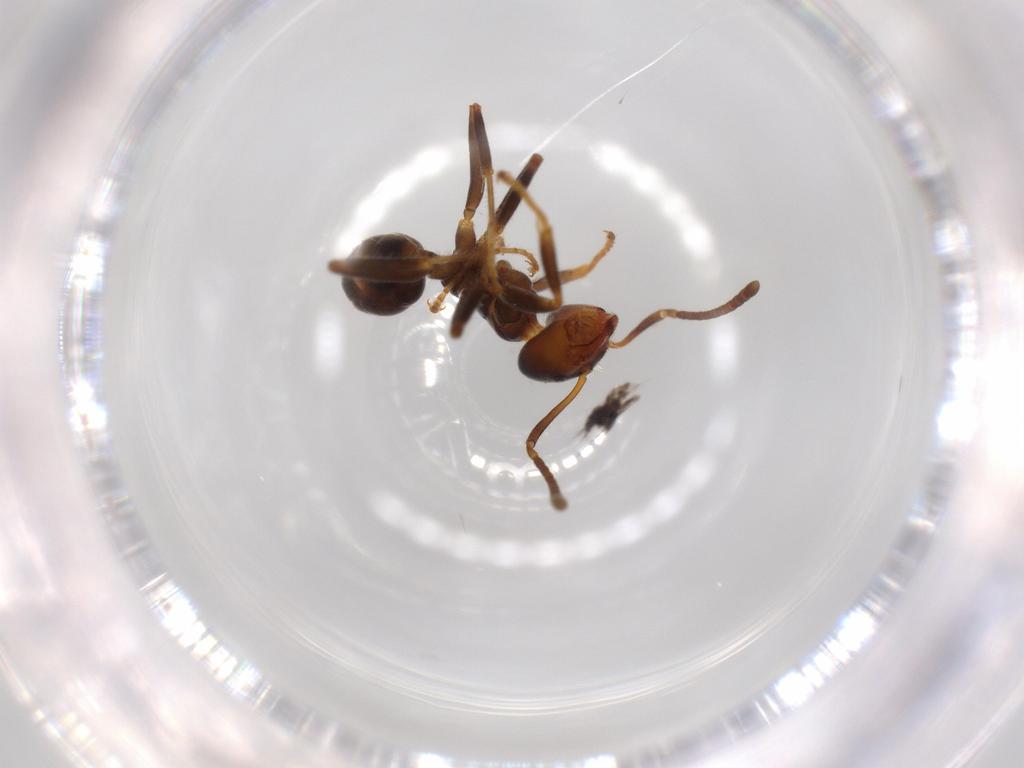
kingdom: Animalia
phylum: Arthropoda
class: Insecta
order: Hymenoptera
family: Formicidae
